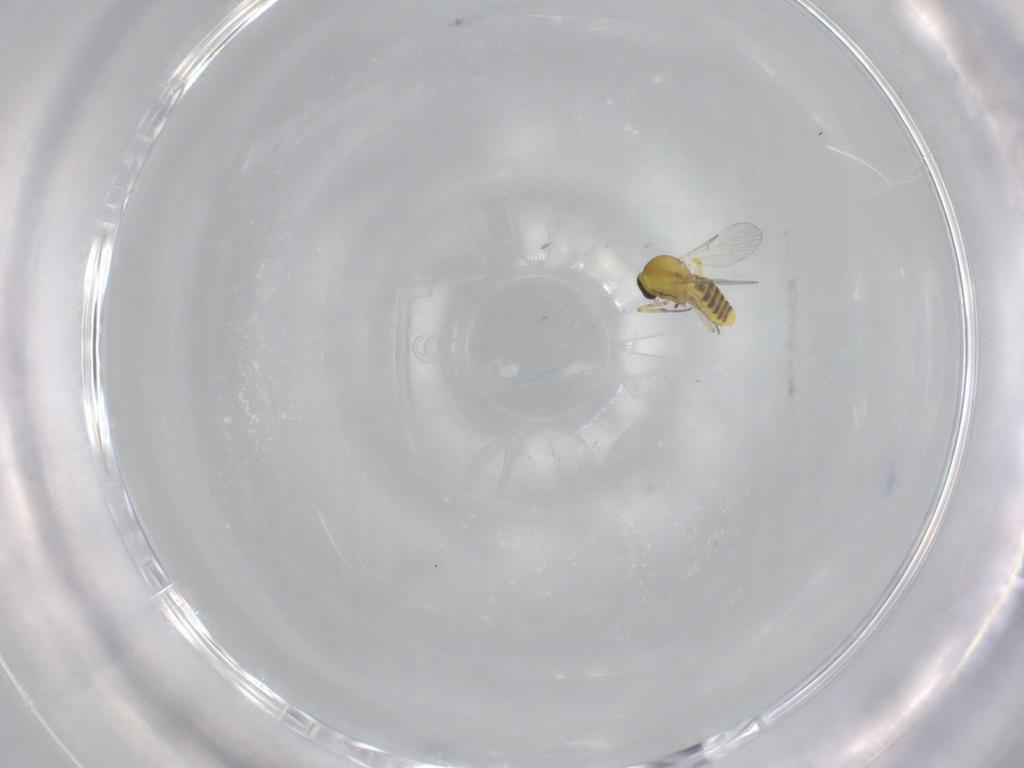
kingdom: Animalia
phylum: Arthropoda
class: Insecta
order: Diptera
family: Ceratopogonidae
